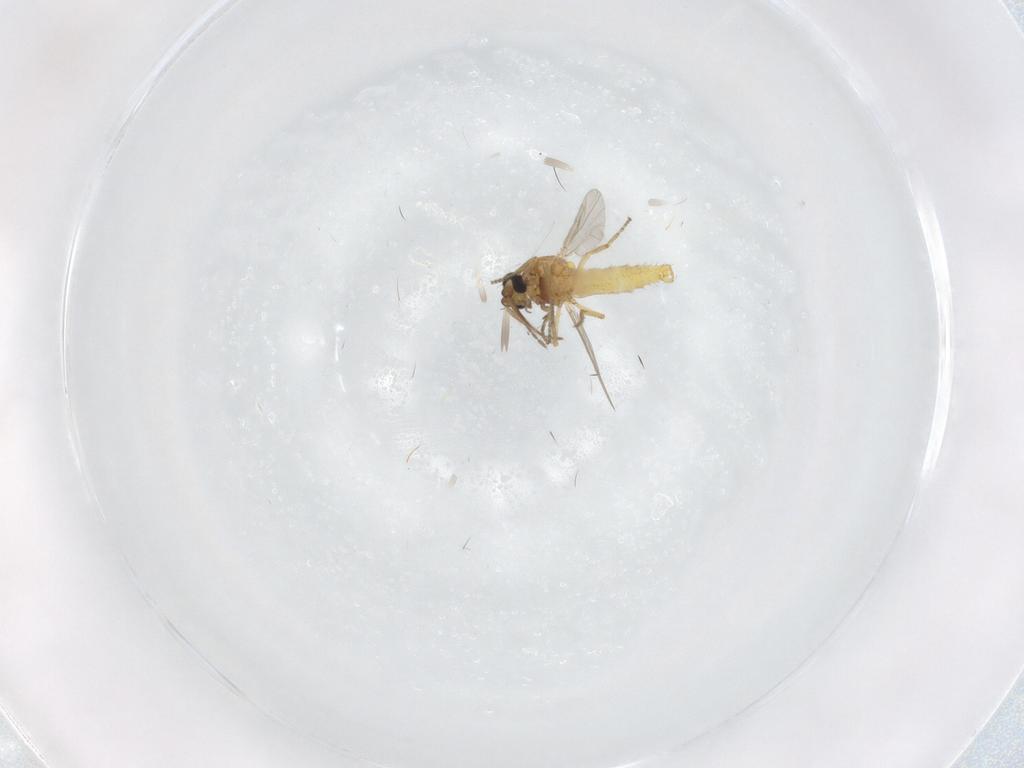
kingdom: Animalia
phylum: Arthropoda
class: Insecta
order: Diptera
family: Ceratopogonidae
